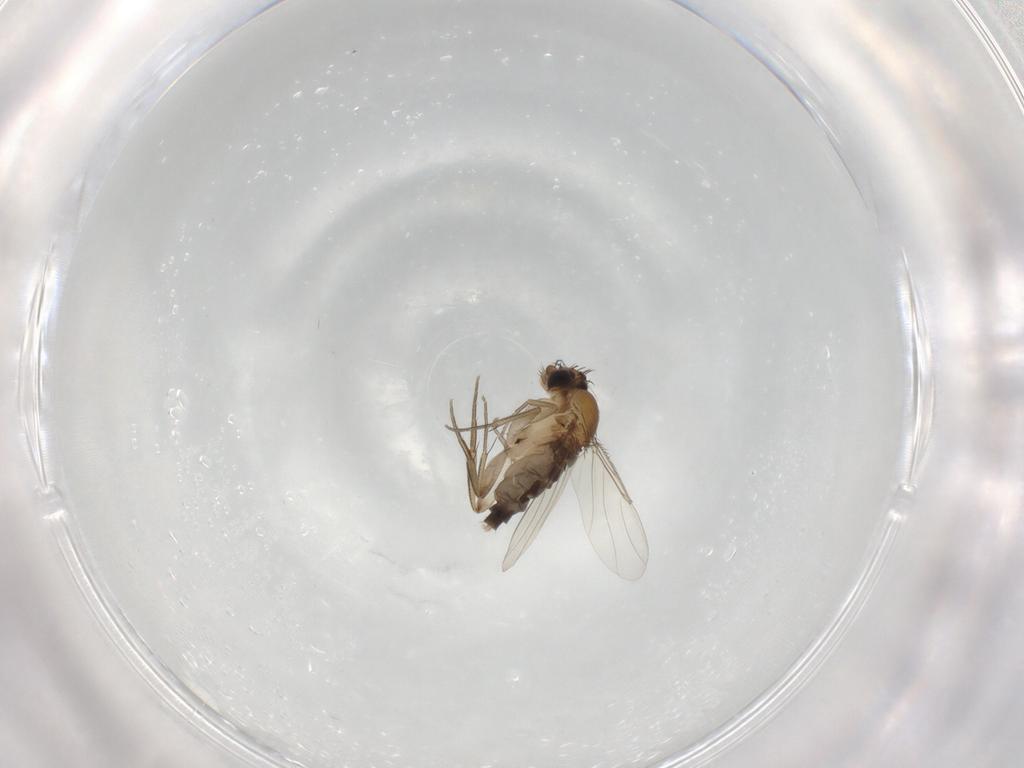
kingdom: Animalia
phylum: Arthropoda
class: Insecta
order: Diptera
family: Phoridae
